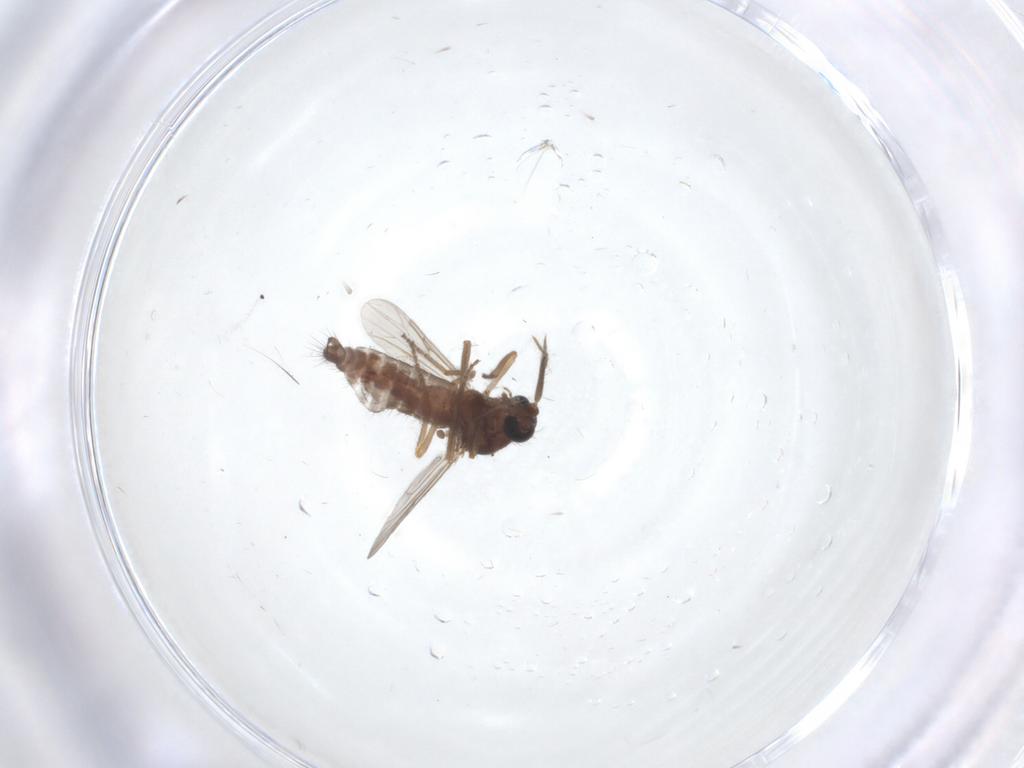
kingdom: Animalia
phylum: Arthropoda
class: Insecta
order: Diptera
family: Ceratopogonidae
